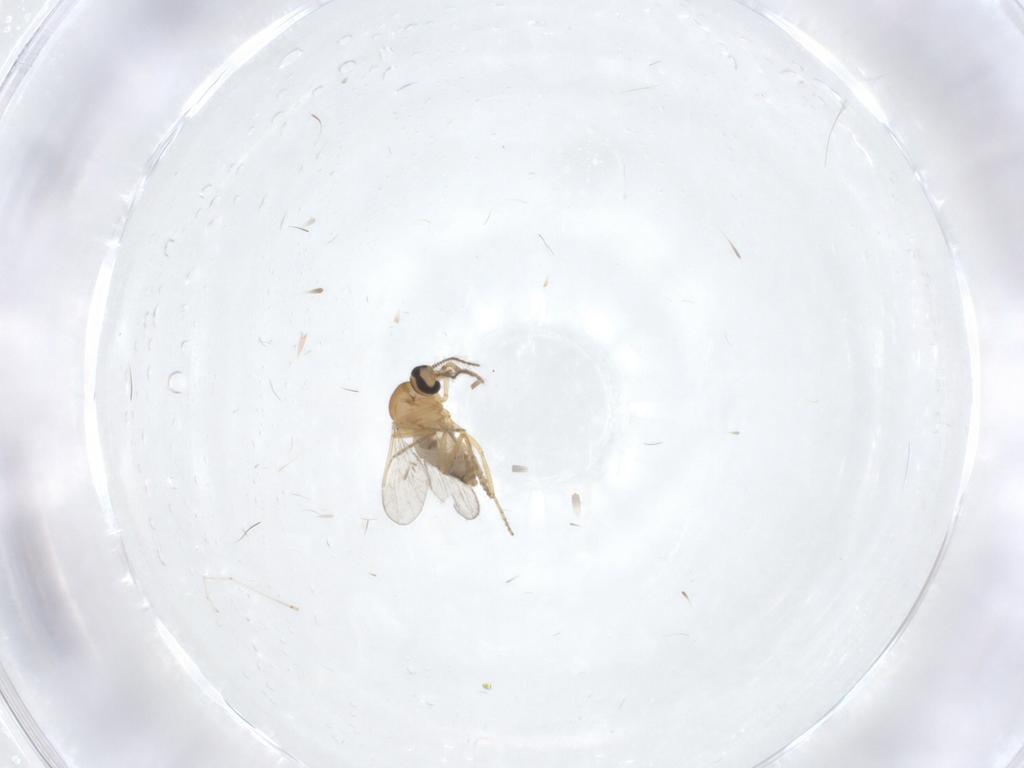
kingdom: Animalia
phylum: Arthropoda
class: Insecta
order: Diptera
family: Ceratopogonidae
